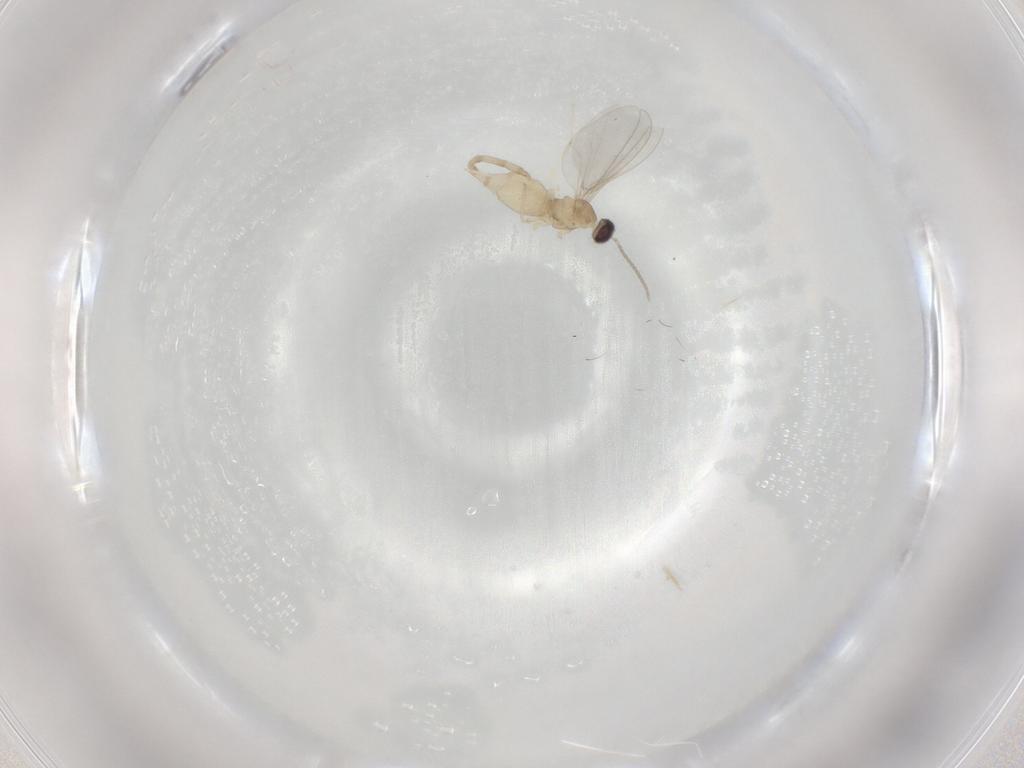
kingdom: Animalia
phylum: Arthropoda
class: Insecta
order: Diptera
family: Cecidomyiidae
